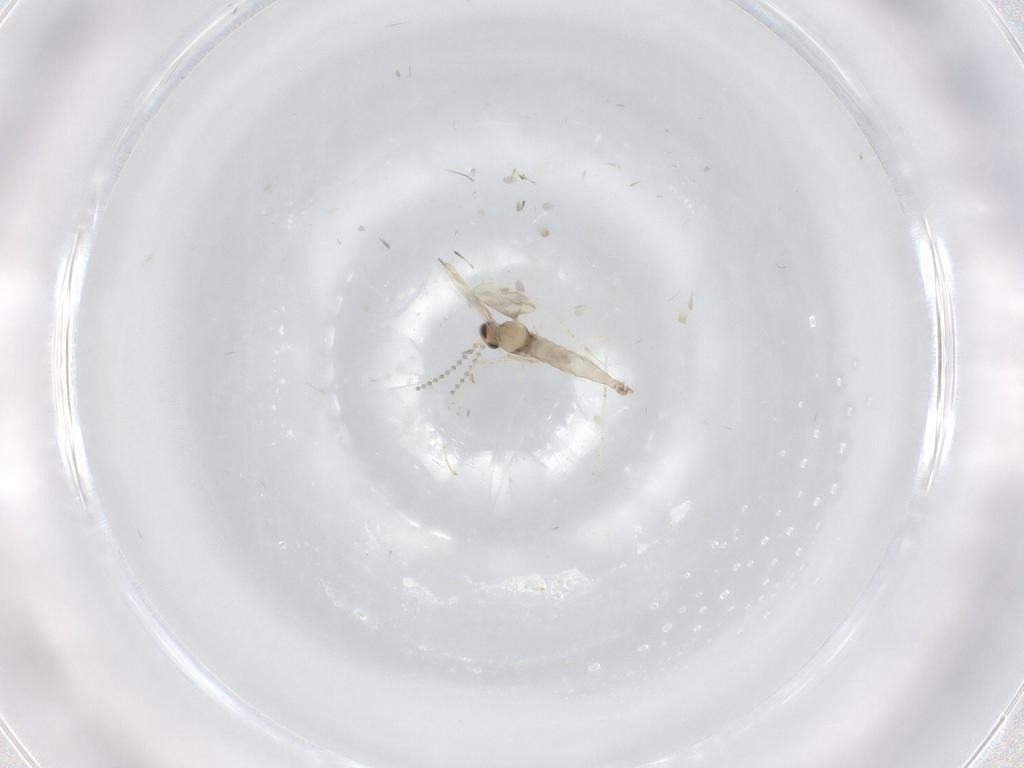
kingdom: Animalia
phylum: Arthropoda
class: Insecta
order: Diptera
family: Cecidomyiidae
